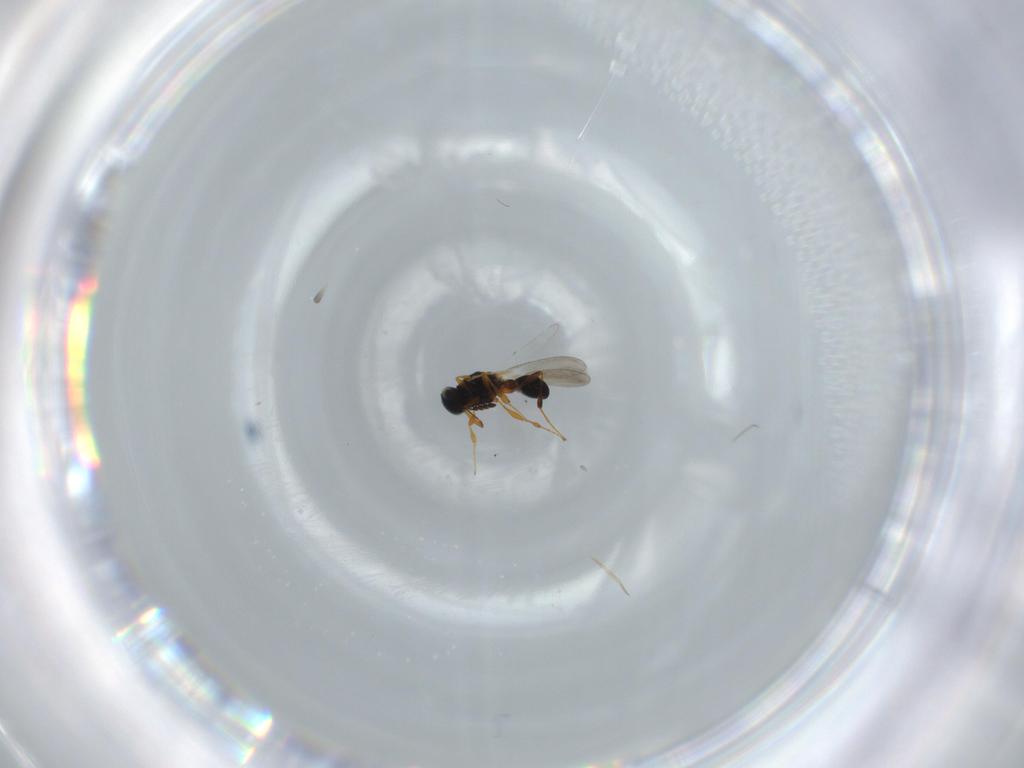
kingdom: Animalia
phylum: Arthropoda
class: Insecta
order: Hymenoptera
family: Platygastridae
